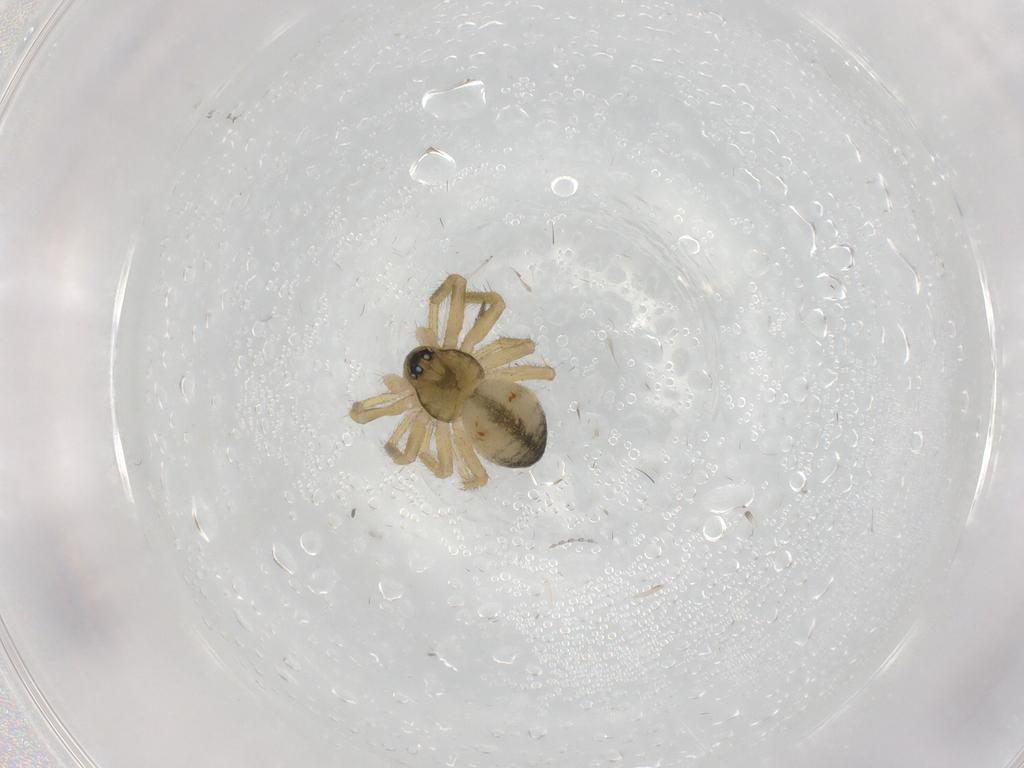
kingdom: Animalia
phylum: Arthropoda
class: Arachnida
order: Araneae
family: Linyphiidae
